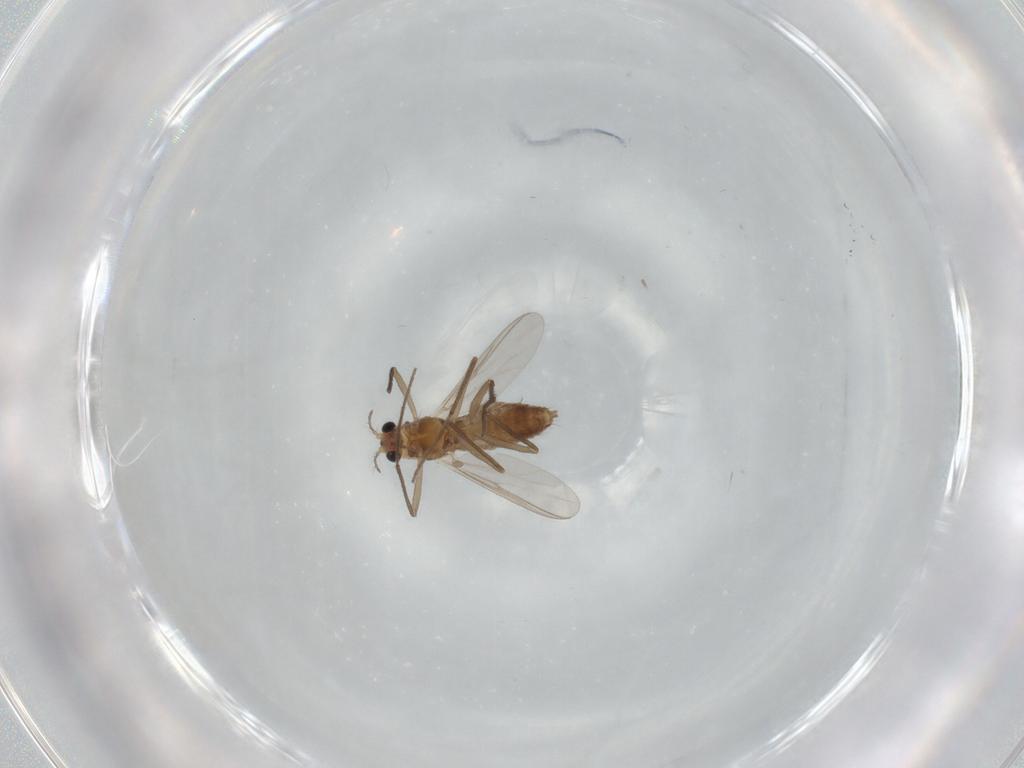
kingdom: Animalia
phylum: Arthropoda
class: Insecta
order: Diptera
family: Chironomidae
